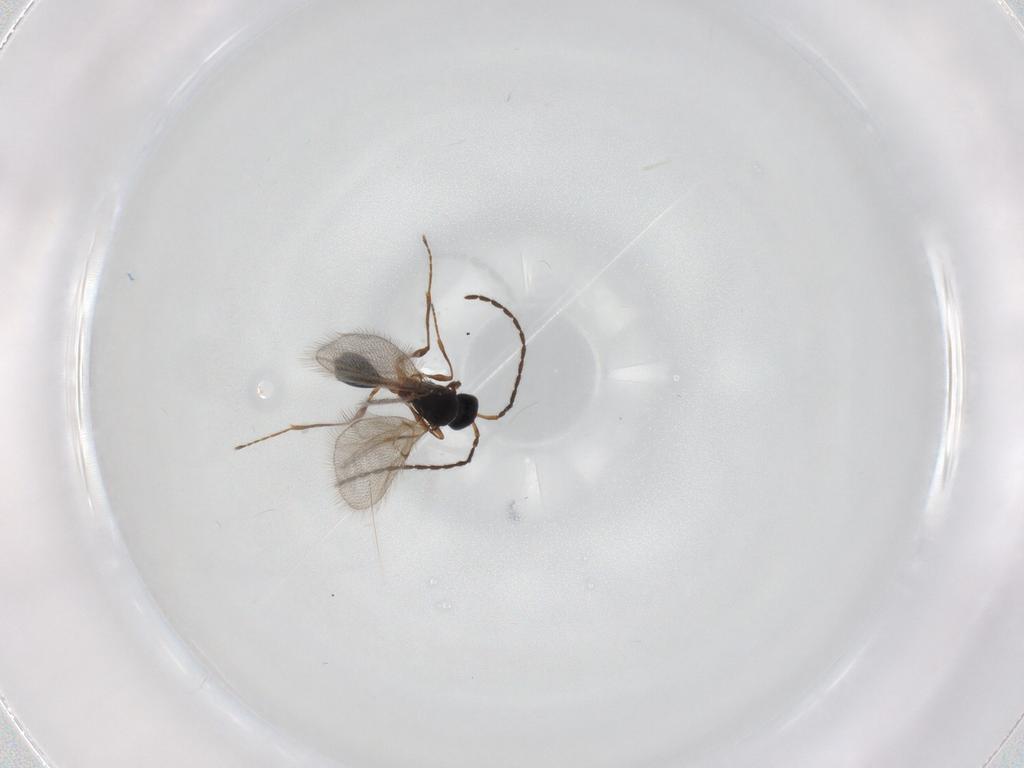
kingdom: Animalia
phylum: Arthropoda
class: Insecta
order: Hymenoptera
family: Diapriidae
